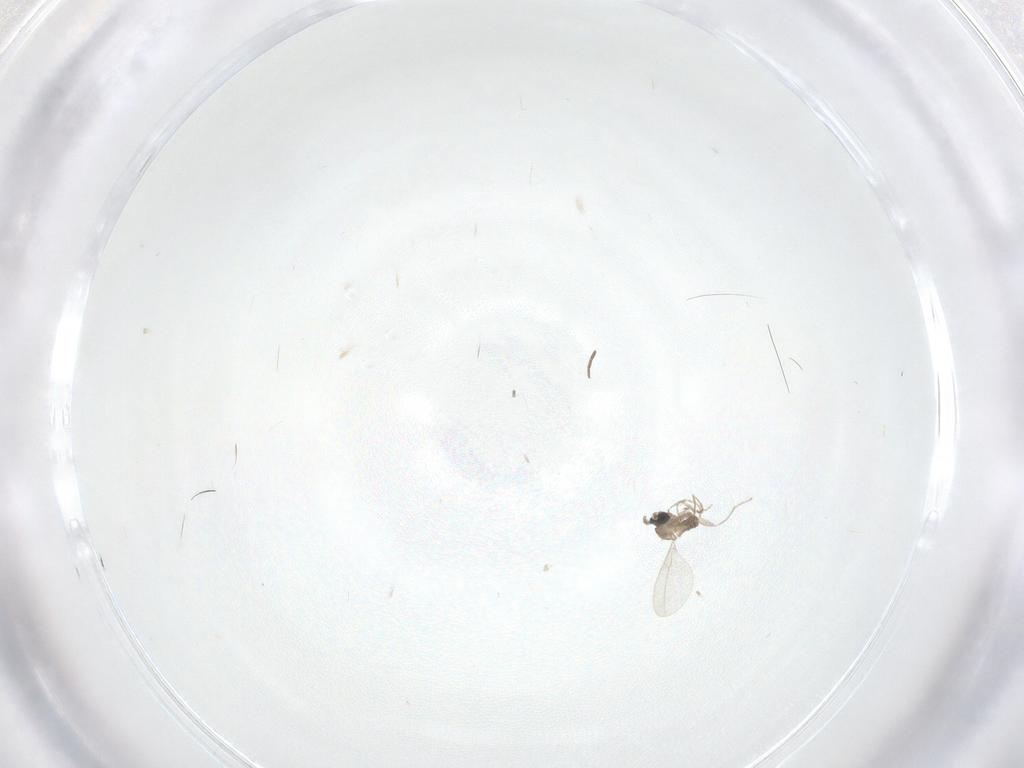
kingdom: Animalia
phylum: Arthropoda
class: Insecta
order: Diptera
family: Cecidomyiidae
